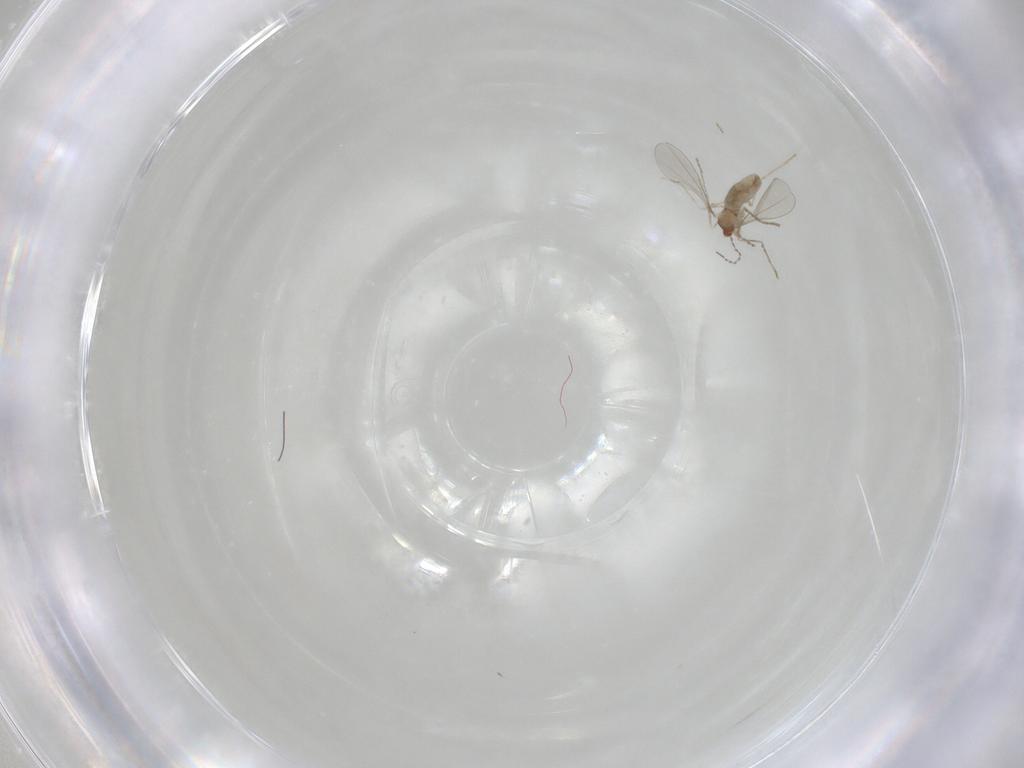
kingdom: Animalia
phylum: Arthropoda
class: Insecta
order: Diptera
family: Cecidomyiidae
